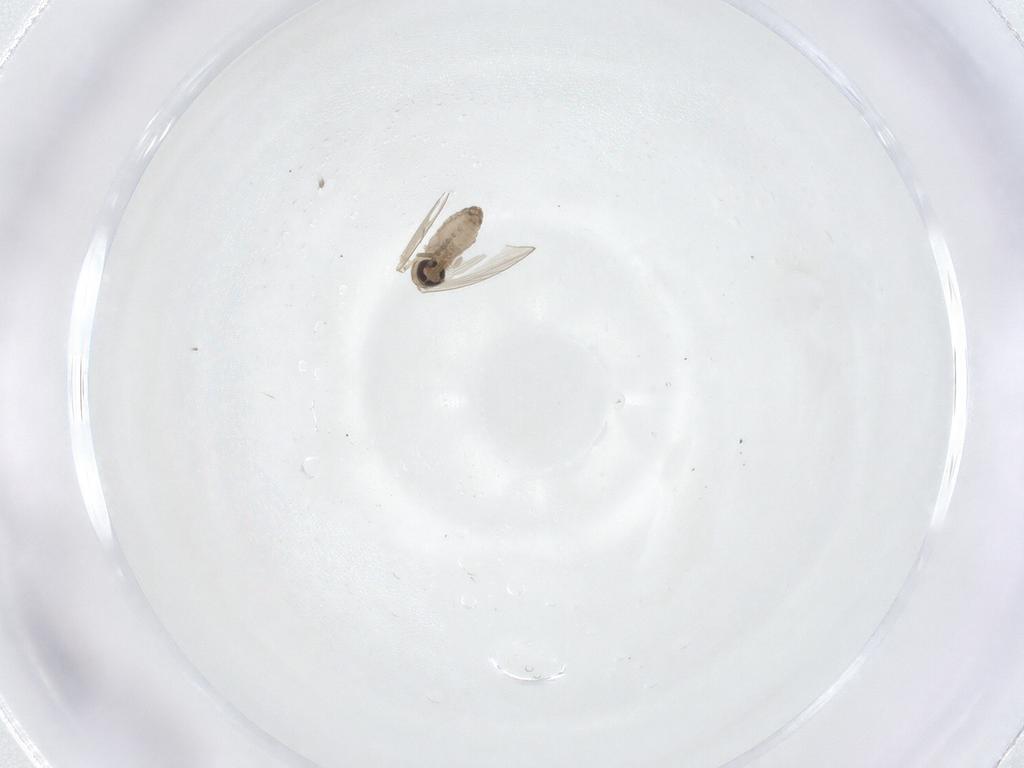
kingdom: Animalia
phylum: Arthropoda
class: Insecta
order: Diptera
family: Psychodidae
